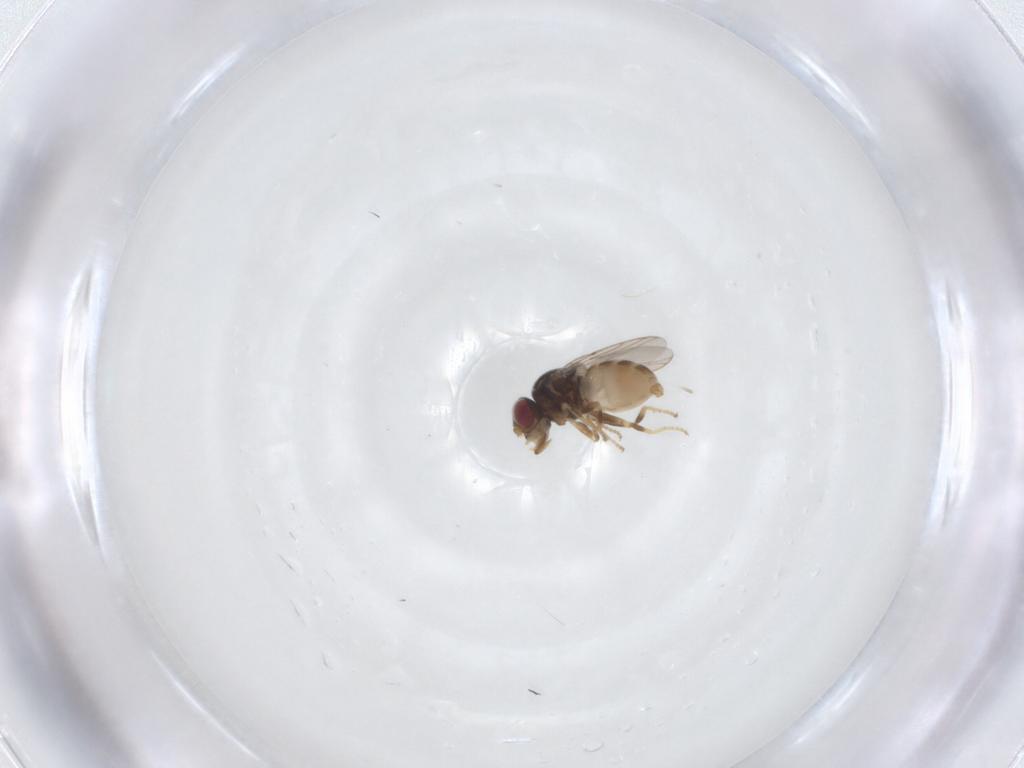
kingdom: Animalia
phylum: Arthropoda
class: Insecta
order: Diptera
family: Chloropidae
